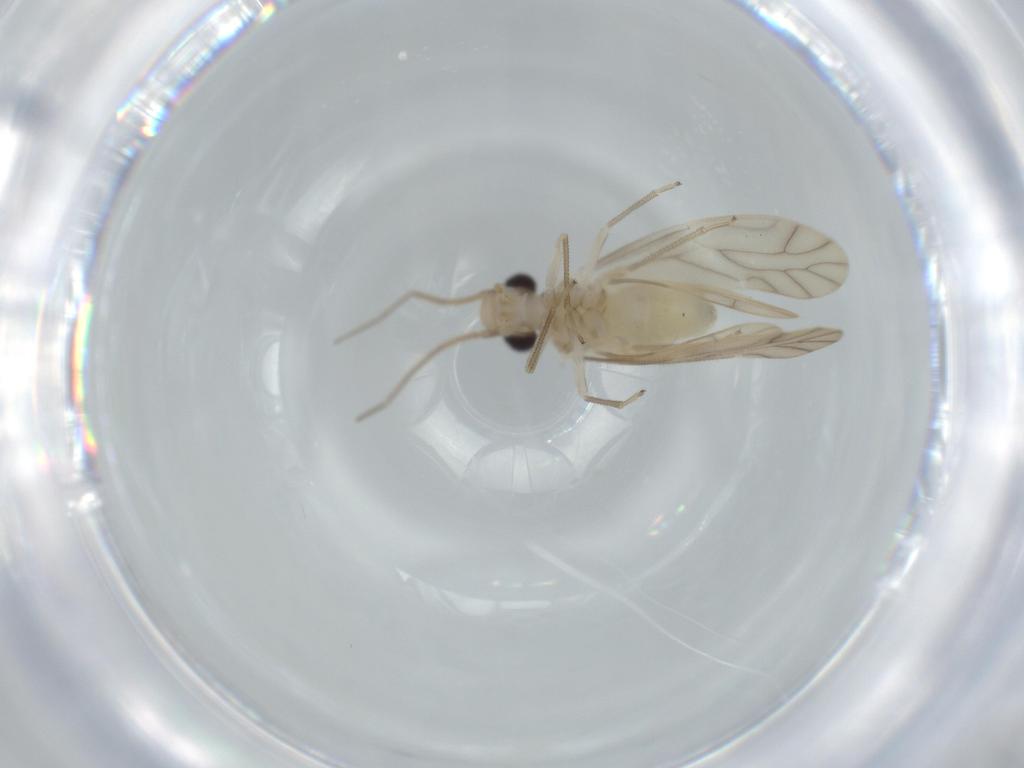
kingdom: Animalia
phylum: Arthropoda
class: Insecta
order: Psocodea
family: Caeciliusidae
